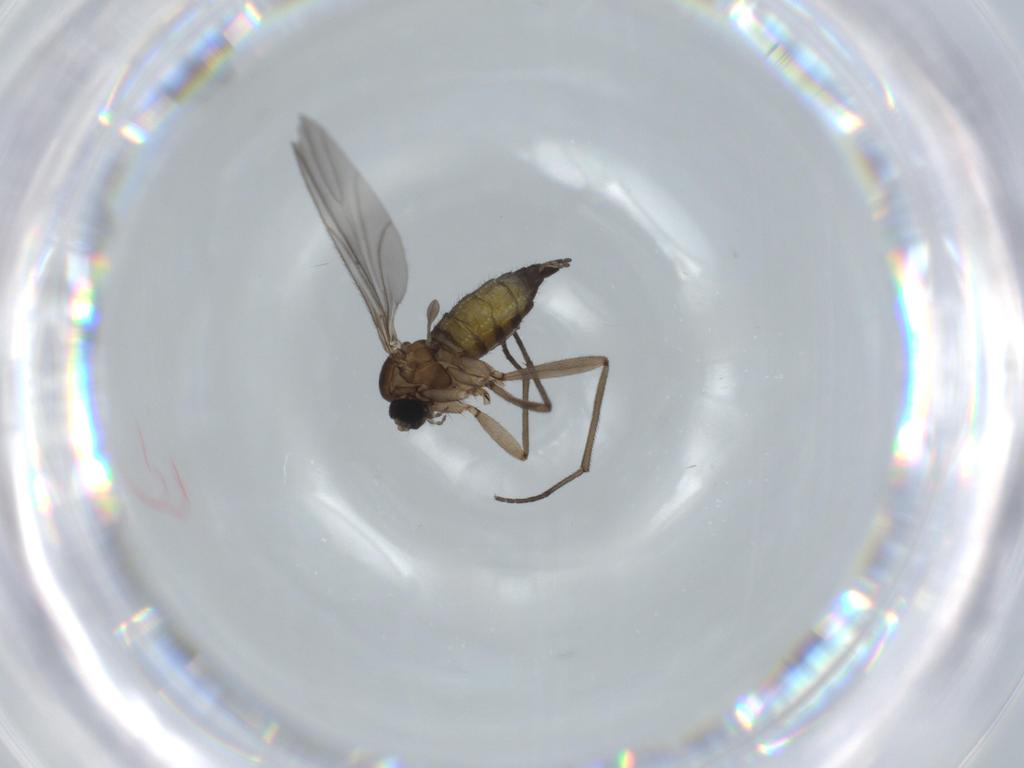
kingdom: Animalia
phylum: Arthropoda
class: Insecta
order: Diptera
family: Sciaridae
